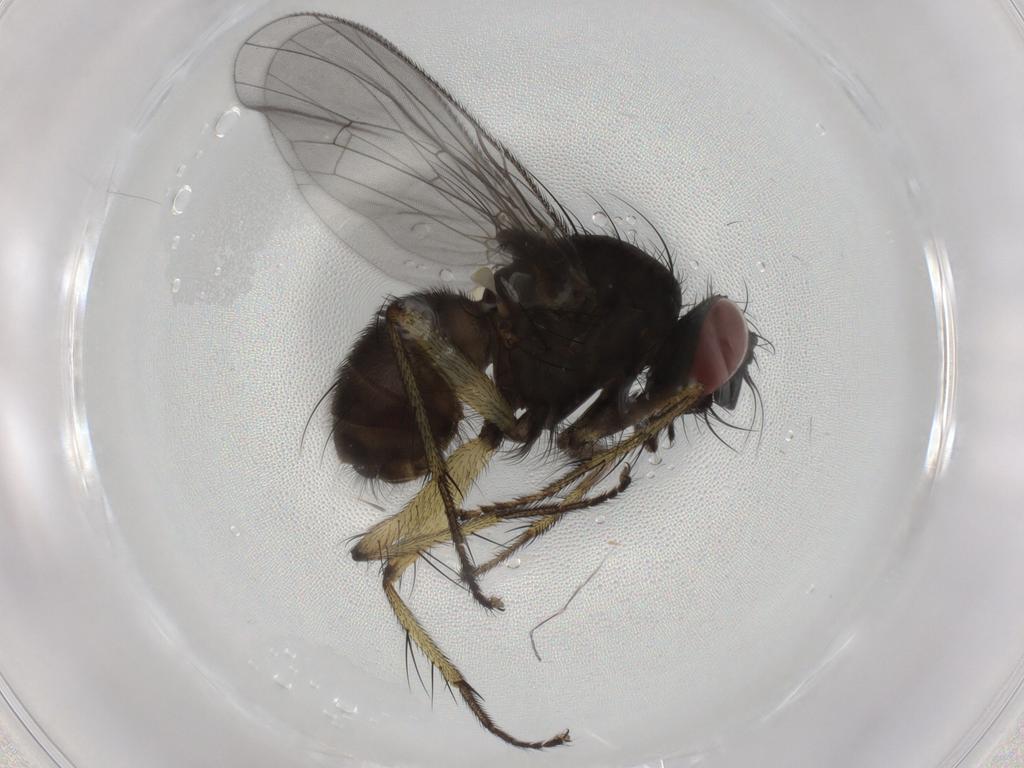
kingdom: Animalia
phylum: Arthropoda
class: Insecta
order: Diptera
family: Muscidae
